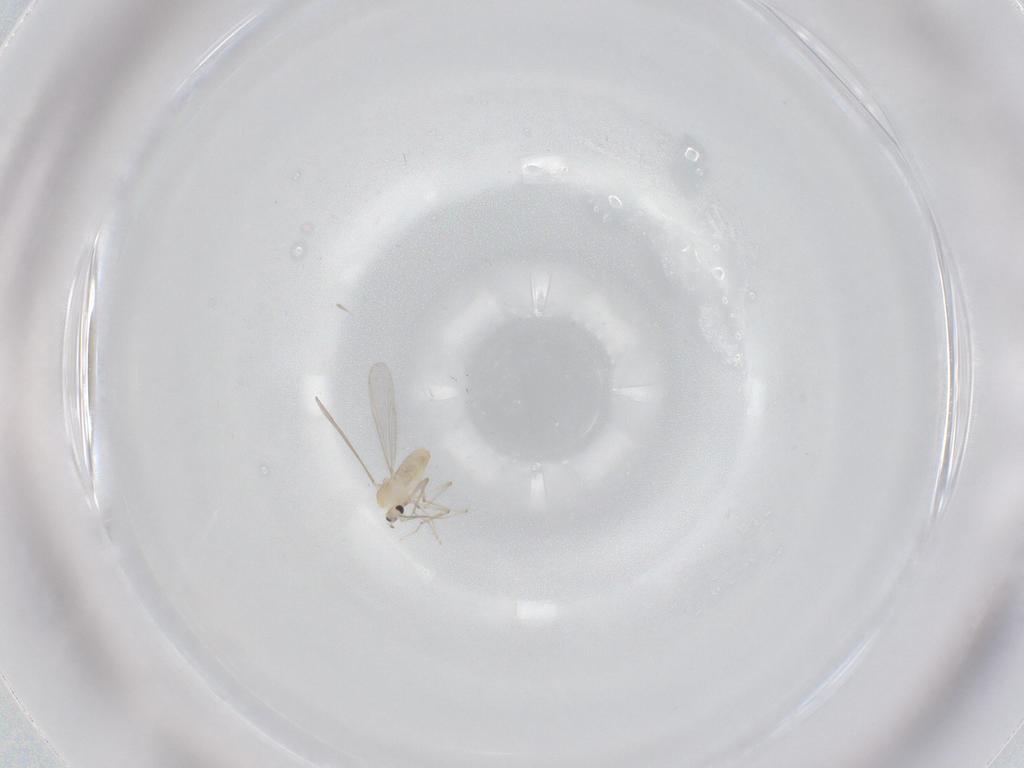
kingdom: Animalia
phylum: Arthropoda
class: Insecta
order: Diptera
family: Chironomidae
